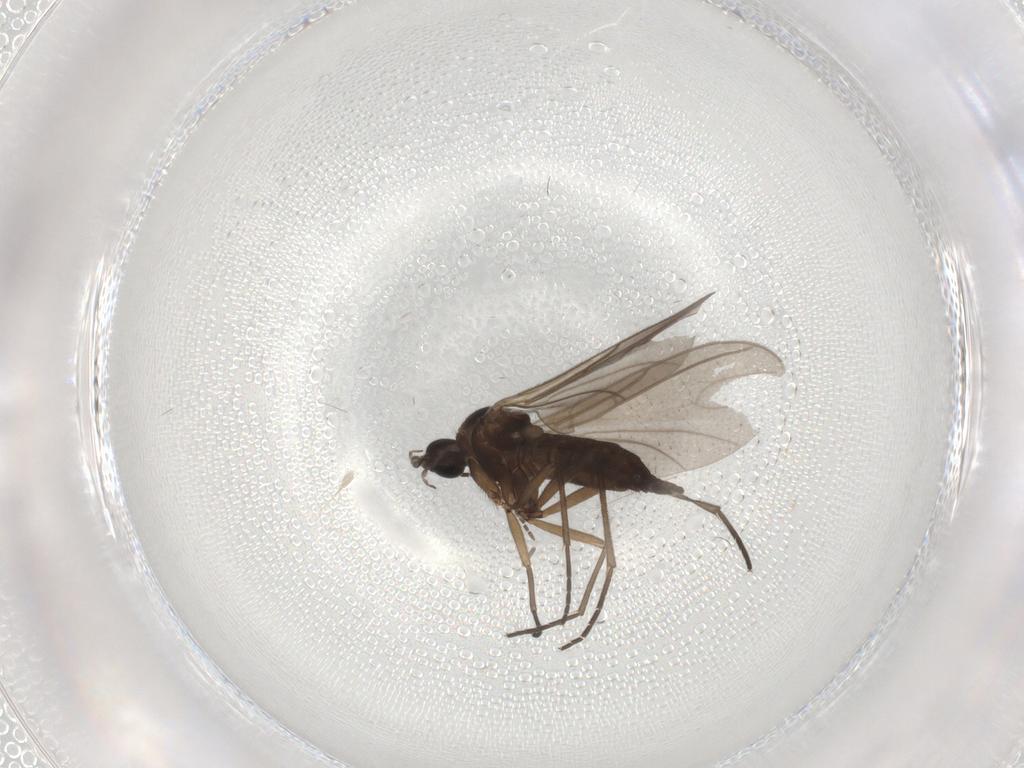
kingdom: Animalia
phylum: Arthropoda
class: Insecta
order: Diptera
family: Sciaridae
